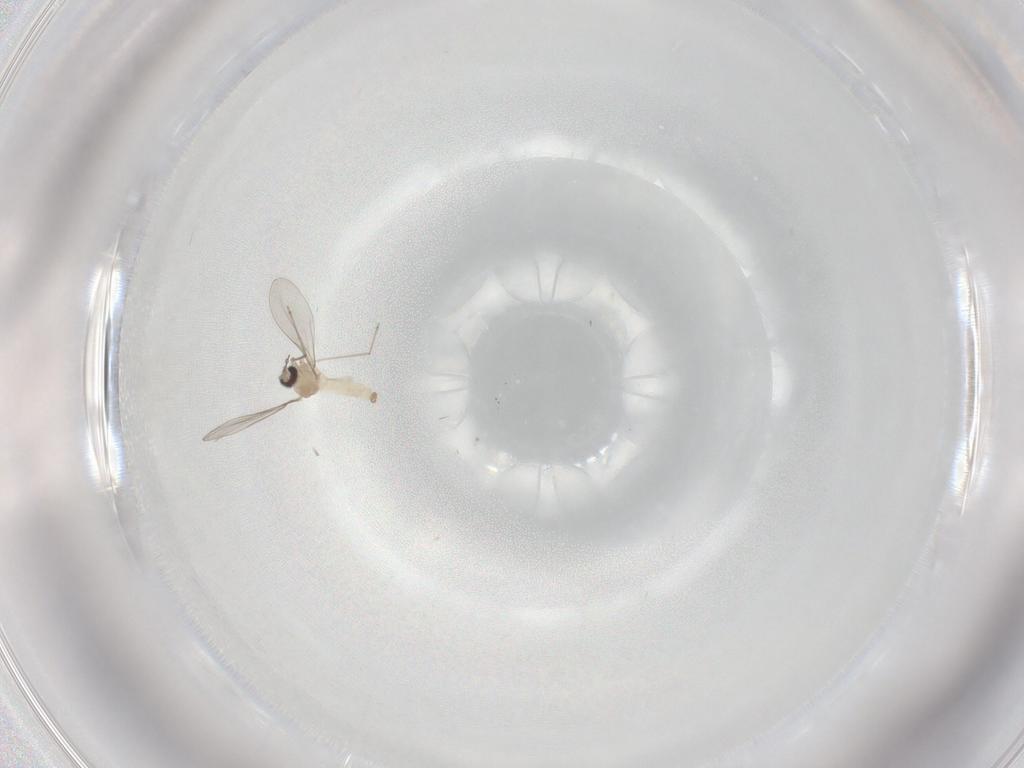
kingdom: Animalia
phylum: Arthropoda
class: Insecta
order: Diptera
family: Cecidomyiidae
